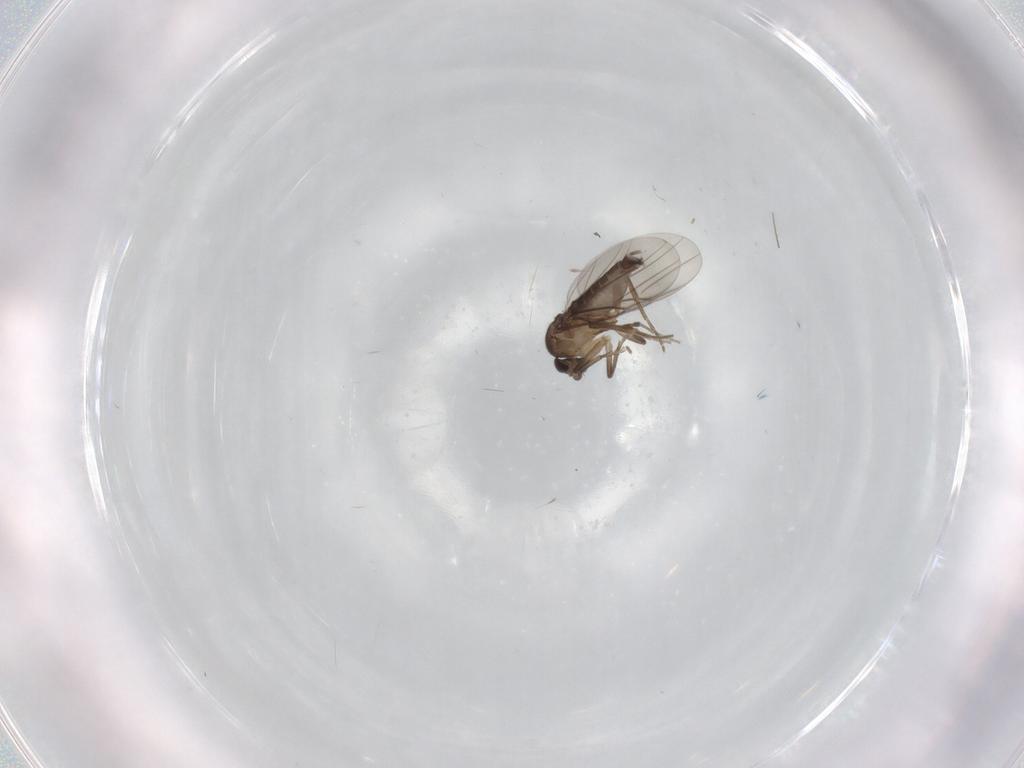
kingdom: Animalia
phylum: Arthropoda
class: Insecta
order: Diptera
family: Phoridae
